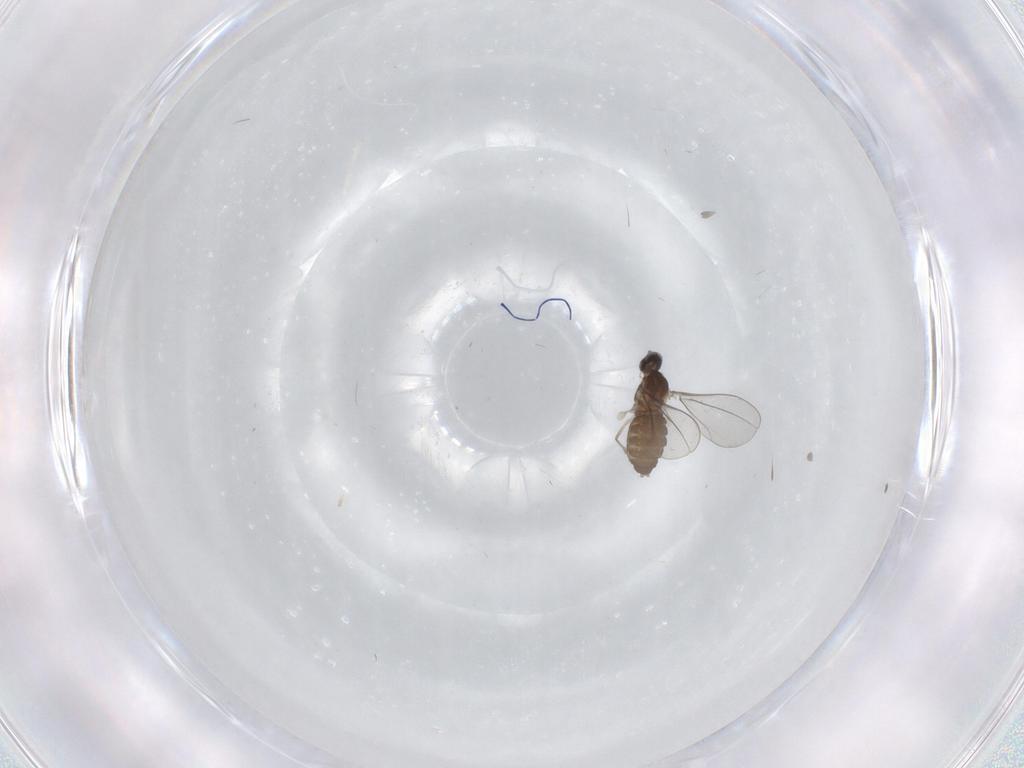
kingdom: Animalia
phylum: Arthropoda
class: Insecta
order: Diptera
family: Cecidomyiidae
